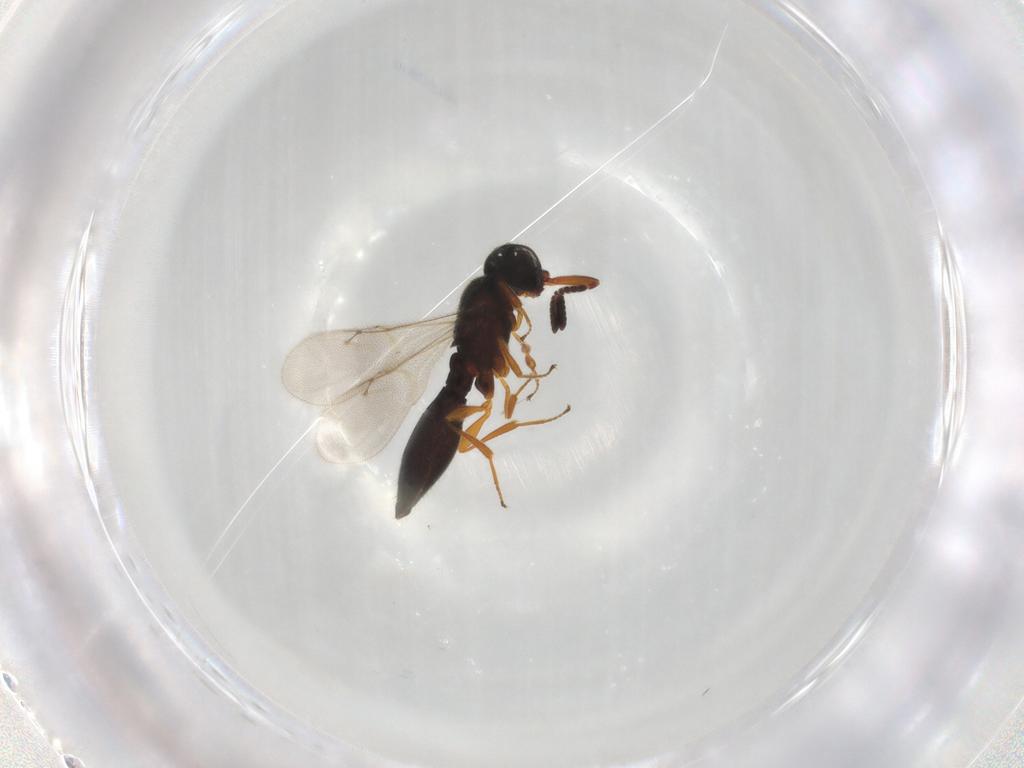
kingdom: Animalia
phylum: Arthropoda
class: Insecta
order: Hymenoptera
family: Scelionidae
